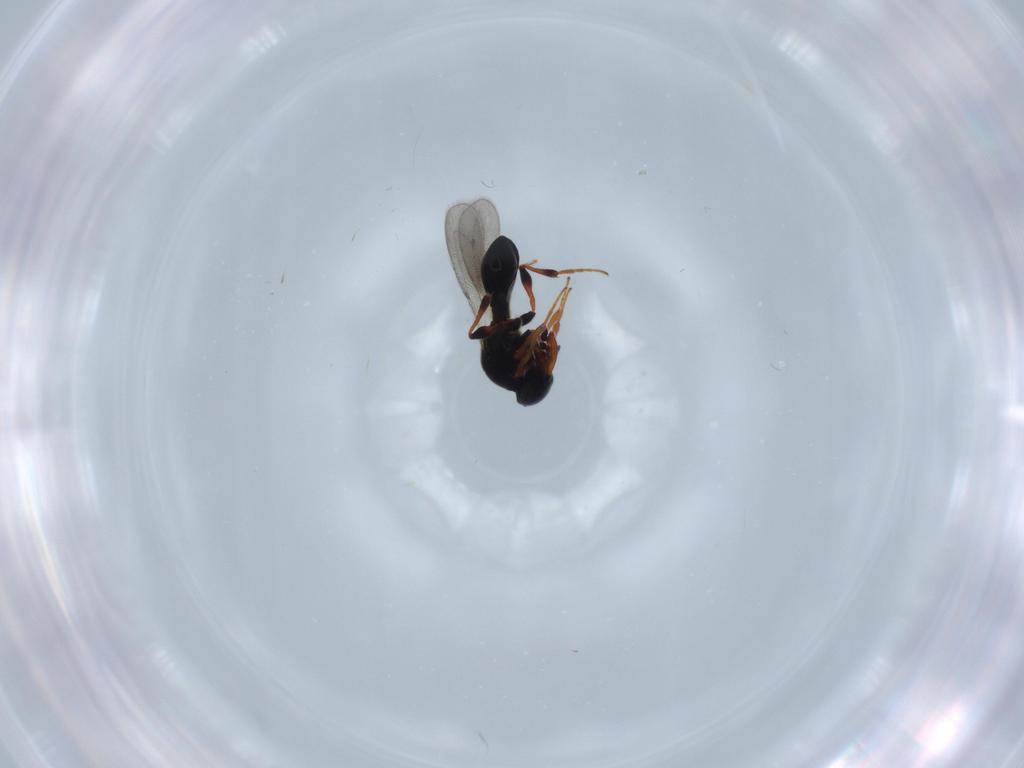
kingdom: Animalia
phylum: Arthropoda
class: Insecta
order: Hymenoptera
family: Platygastridae
